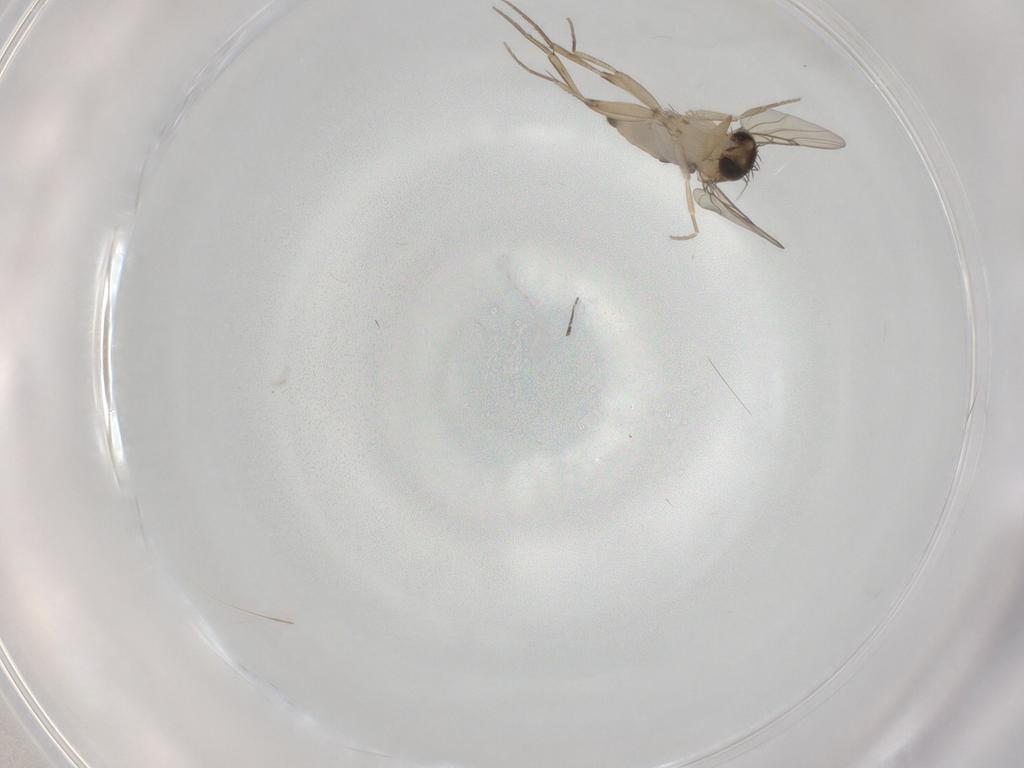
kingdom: Animalia
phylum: Arthropoda
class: Insecta
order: Diptera
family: Phoridae
